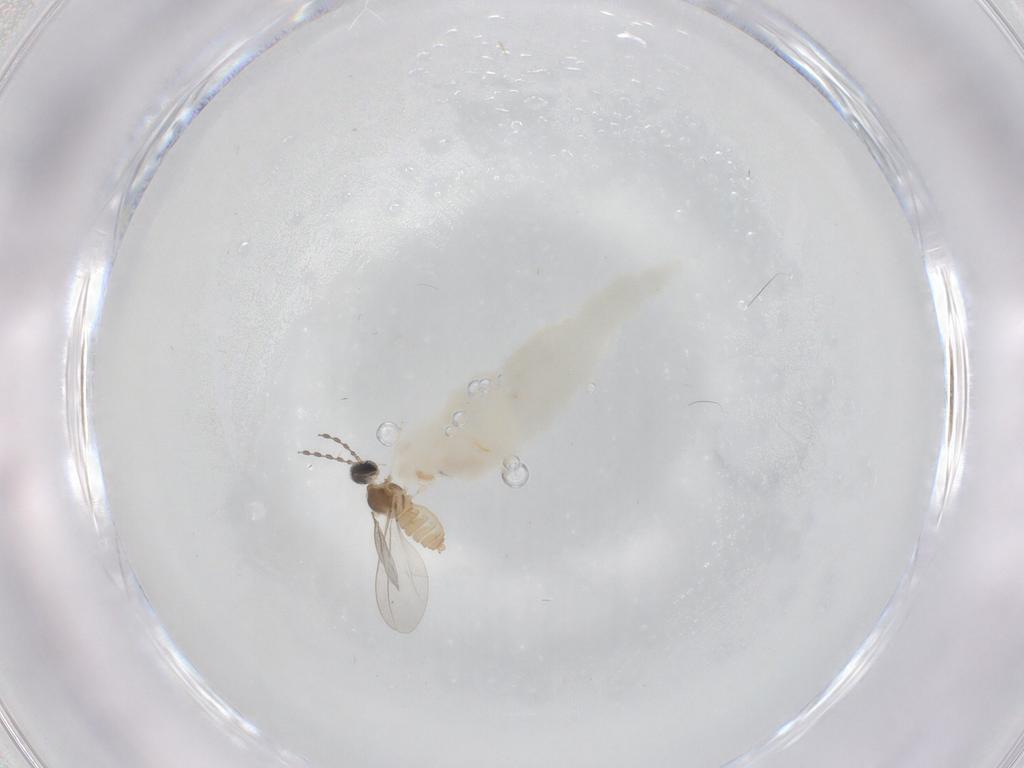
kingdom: Animalia
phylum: Arthropoda
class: Insecta
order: Diptera
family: Cecidomyiidae
